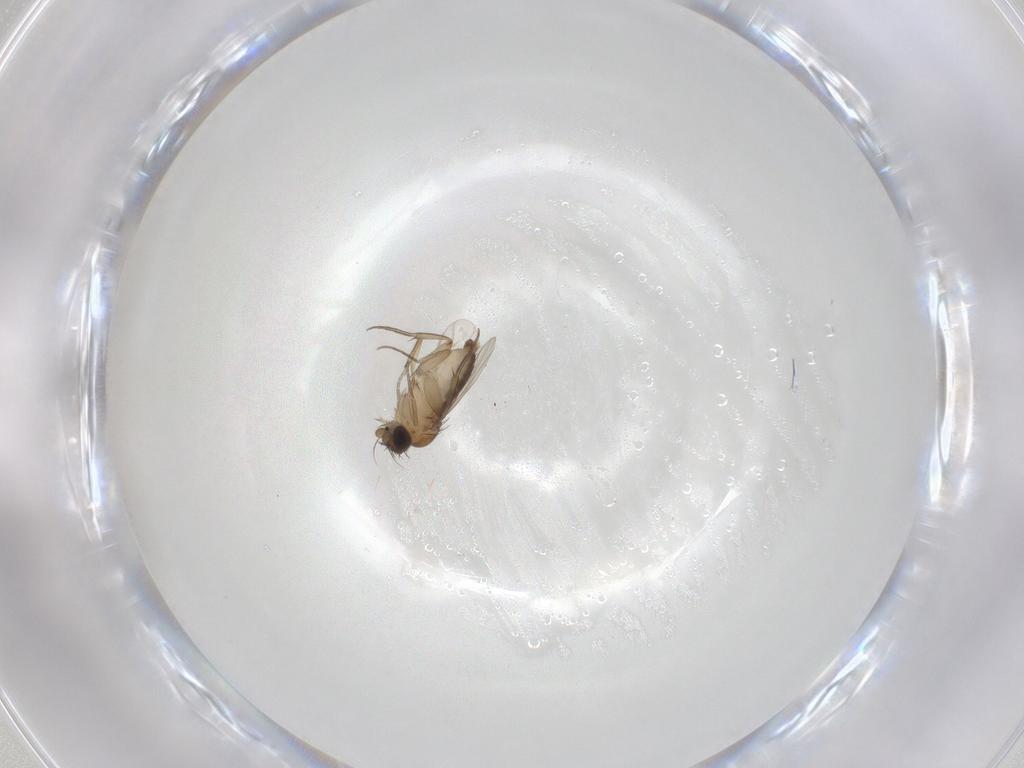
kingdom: Animalia
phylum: Arthropoda
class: Insecta
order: Diptera
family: Phoridae
